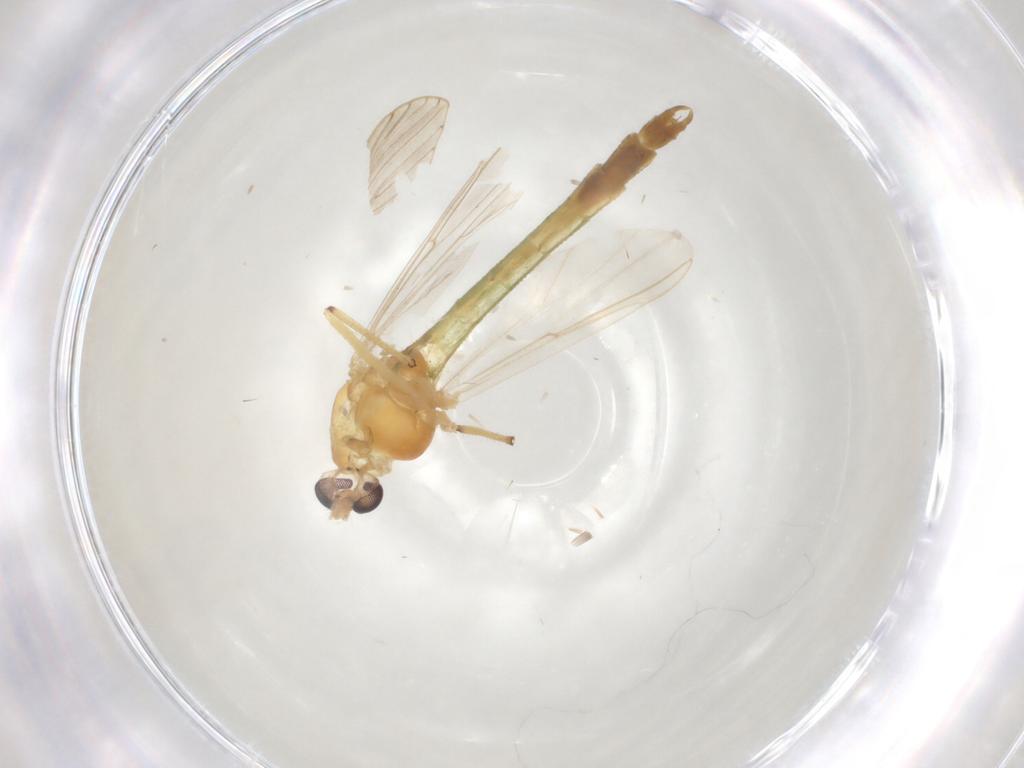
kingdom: Animalia
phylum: Arthropoda
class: Insecta
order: Diptera
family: Chironomidae
